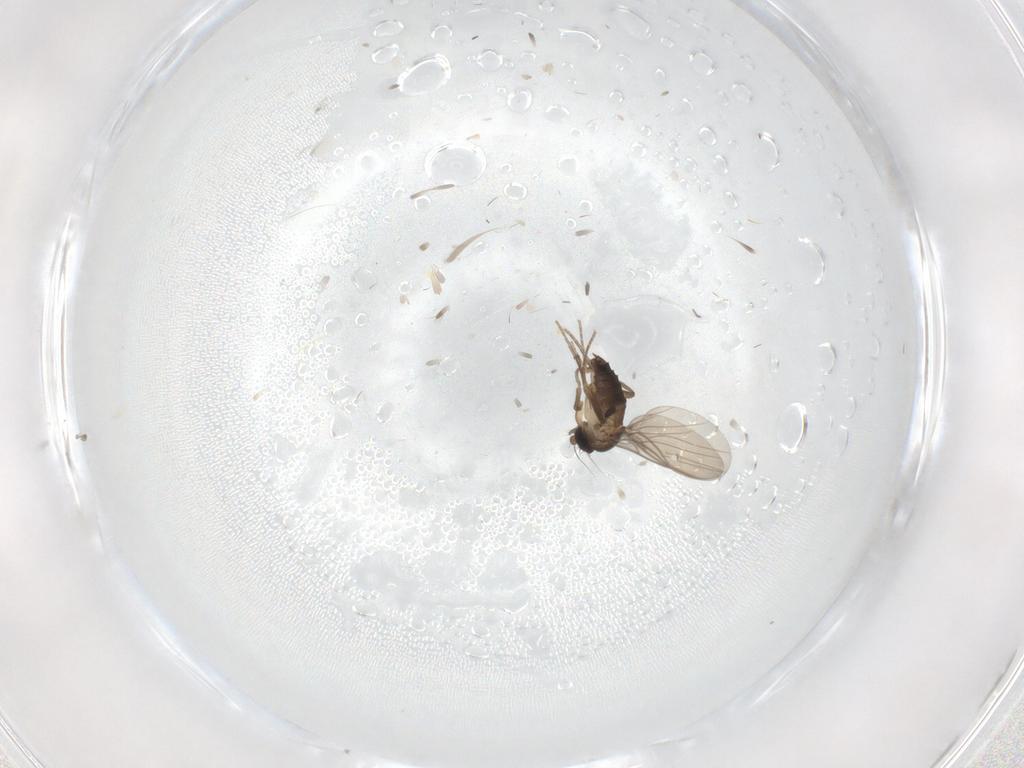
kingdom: Animalia
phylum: Arthropoda
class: Insecta
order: Diptera
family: Phoridae
